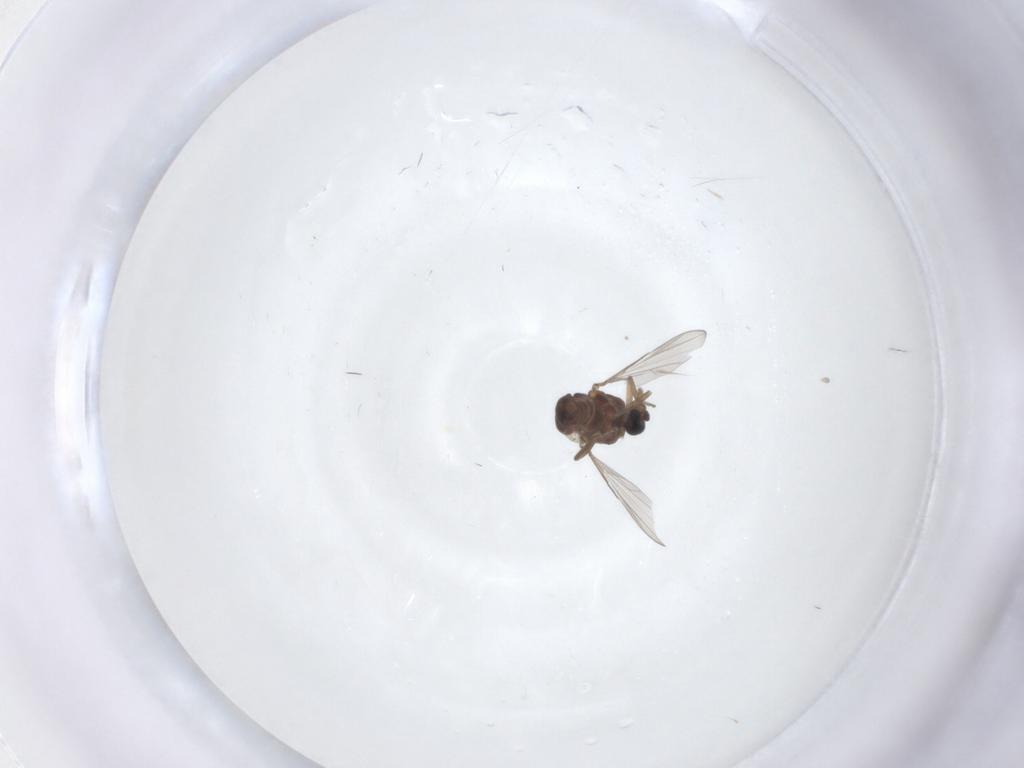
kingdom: Animalia
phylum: Arthropoda
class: Insecta
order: Diptera
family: Ceratopogonidae
